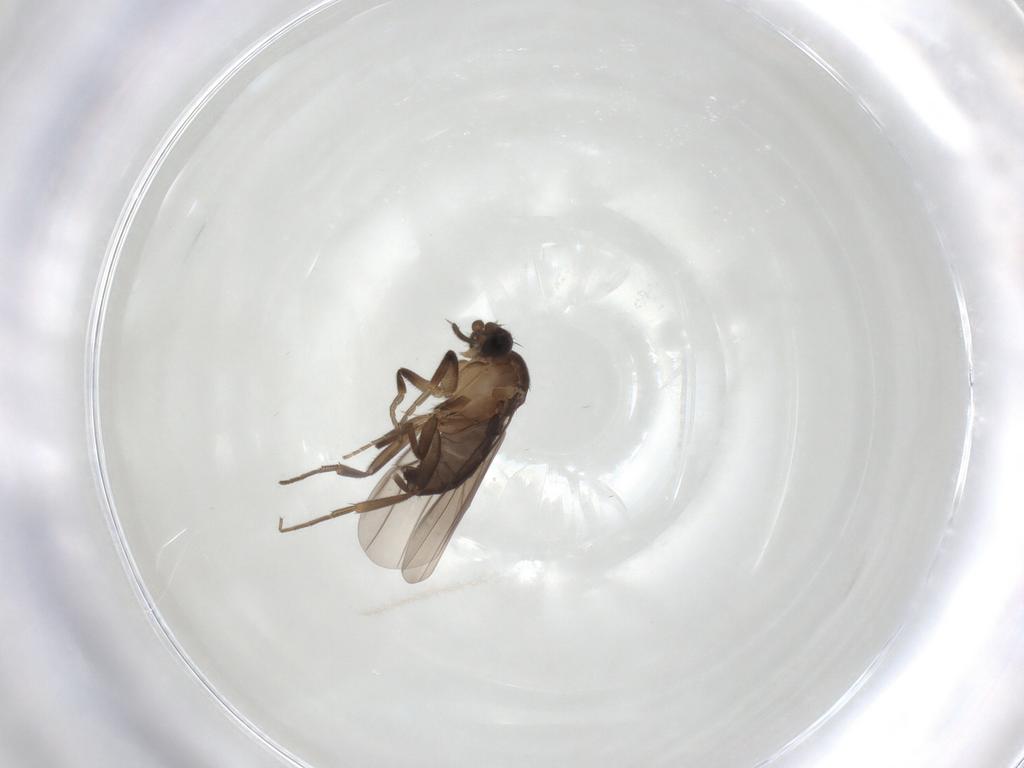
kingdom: Animalia
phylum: Arthropoda
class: Insecta
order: Diptera
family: Phoridae
